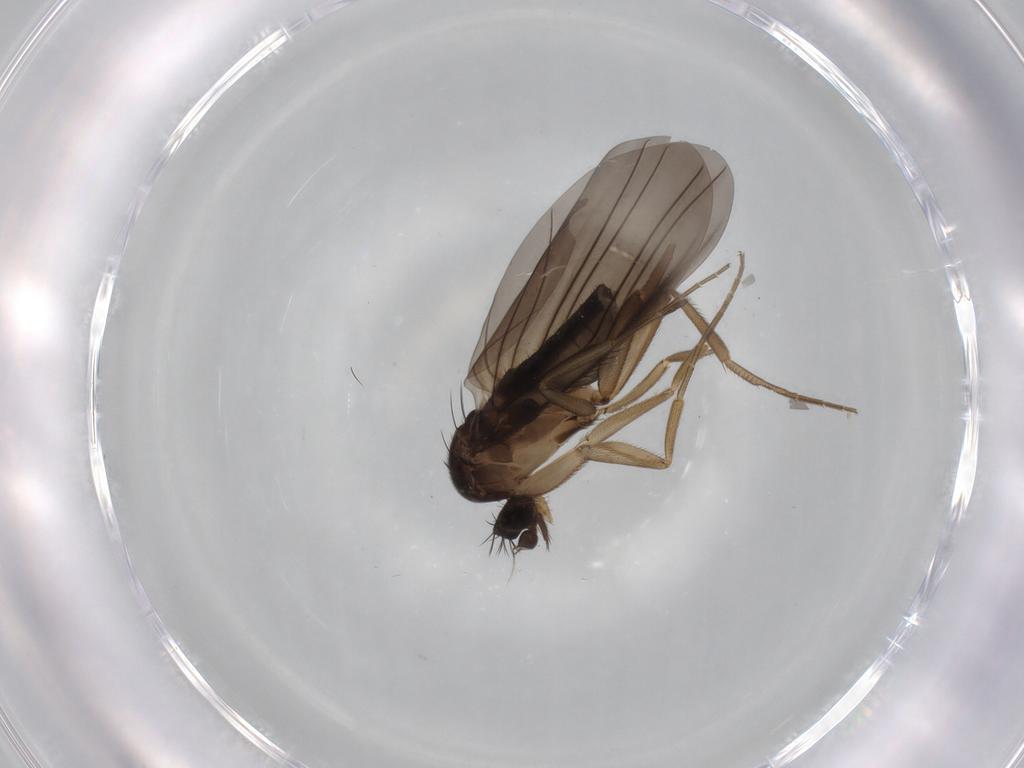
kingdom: Animalia
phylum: Arthropoda
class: Insecta
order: Diptera
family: Phoridae
